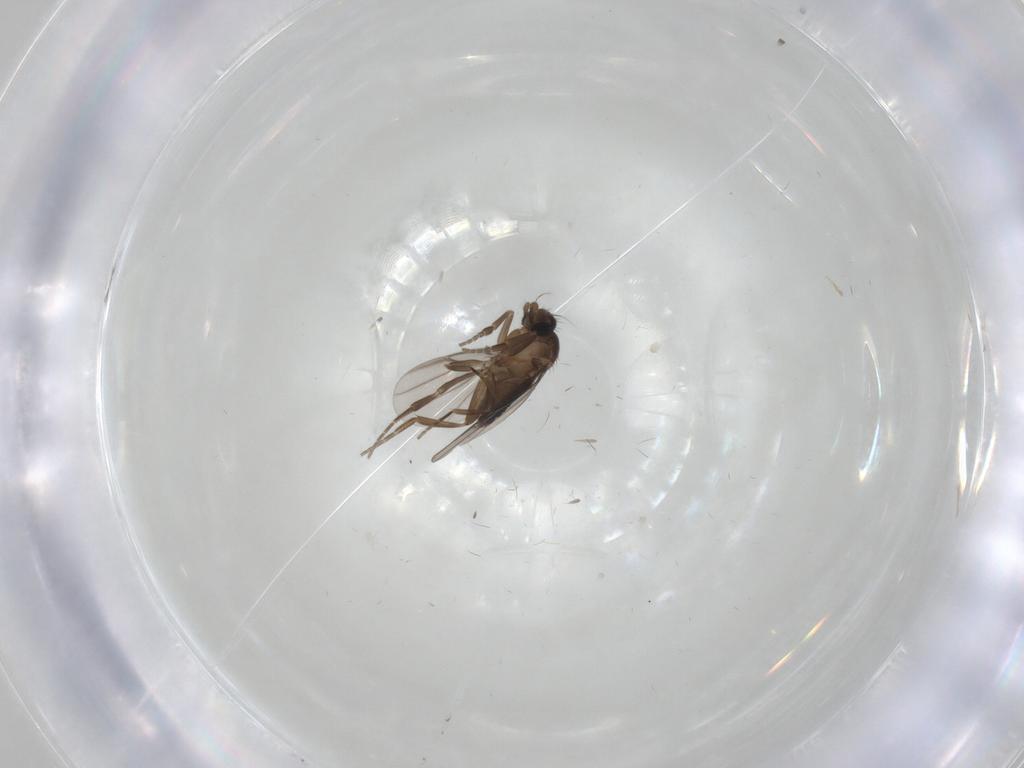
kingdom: Animalia
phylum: Arthropoda
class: Insecta
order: Diptera
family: Phoridae
